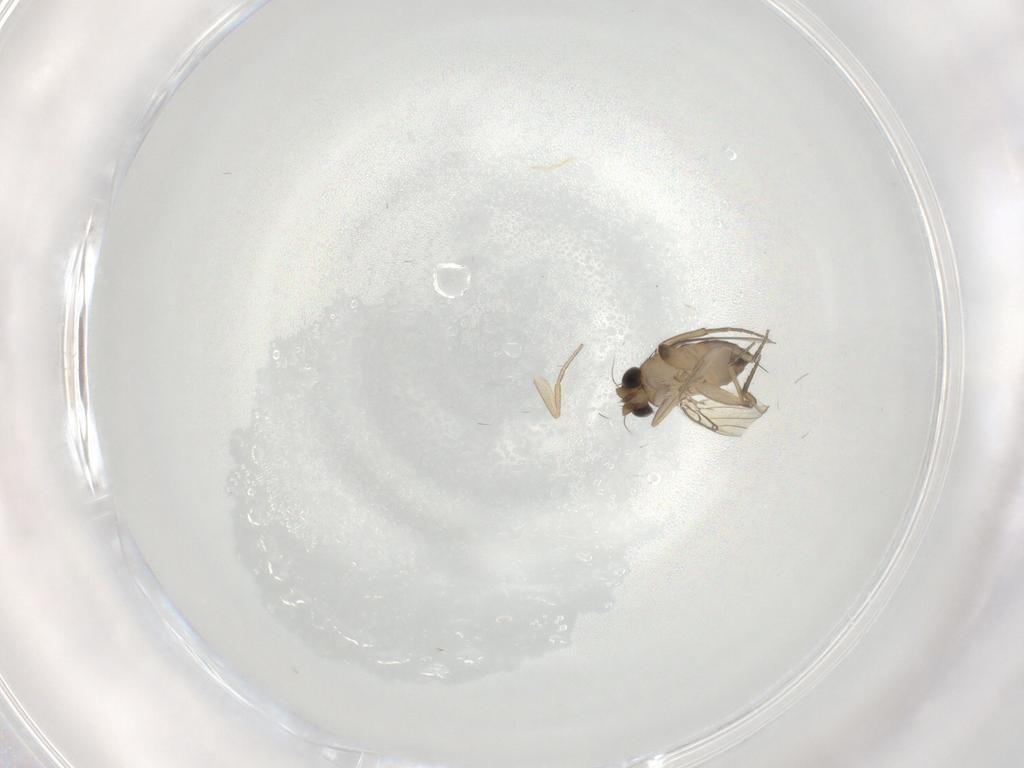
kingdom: Animalia
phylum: Arthropoda
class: Insecta
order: Diptera
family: Phoridae
